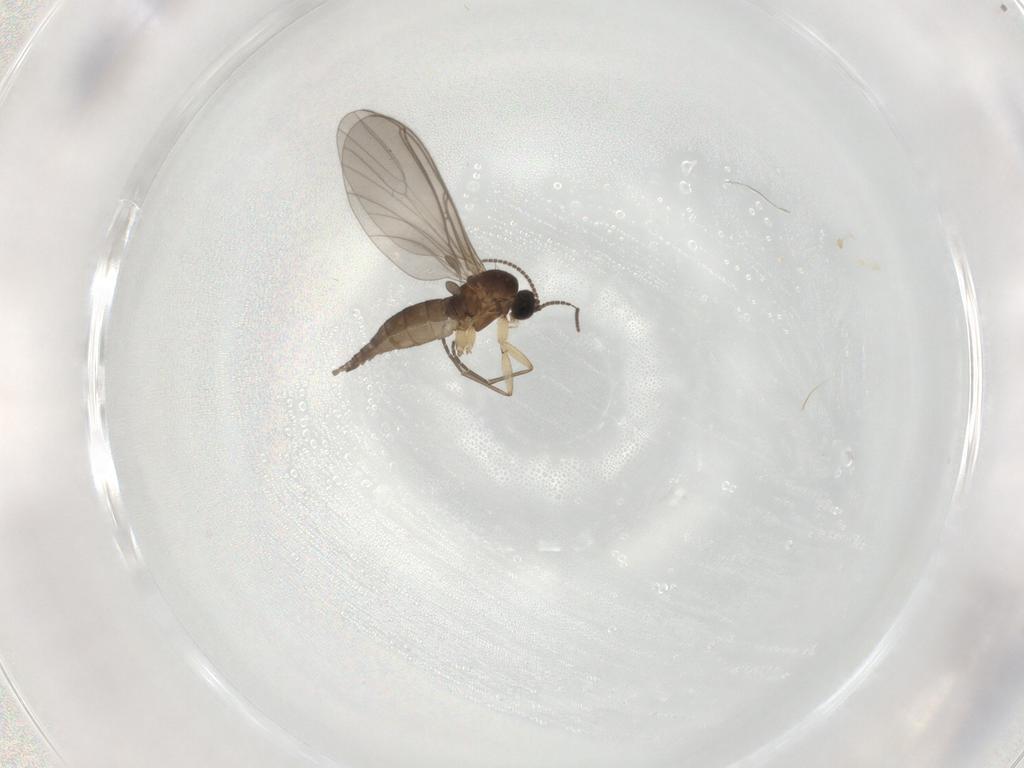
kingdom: Animalia
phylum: Arthropoda
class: Insecta
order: Diptera
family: Sciaridae
